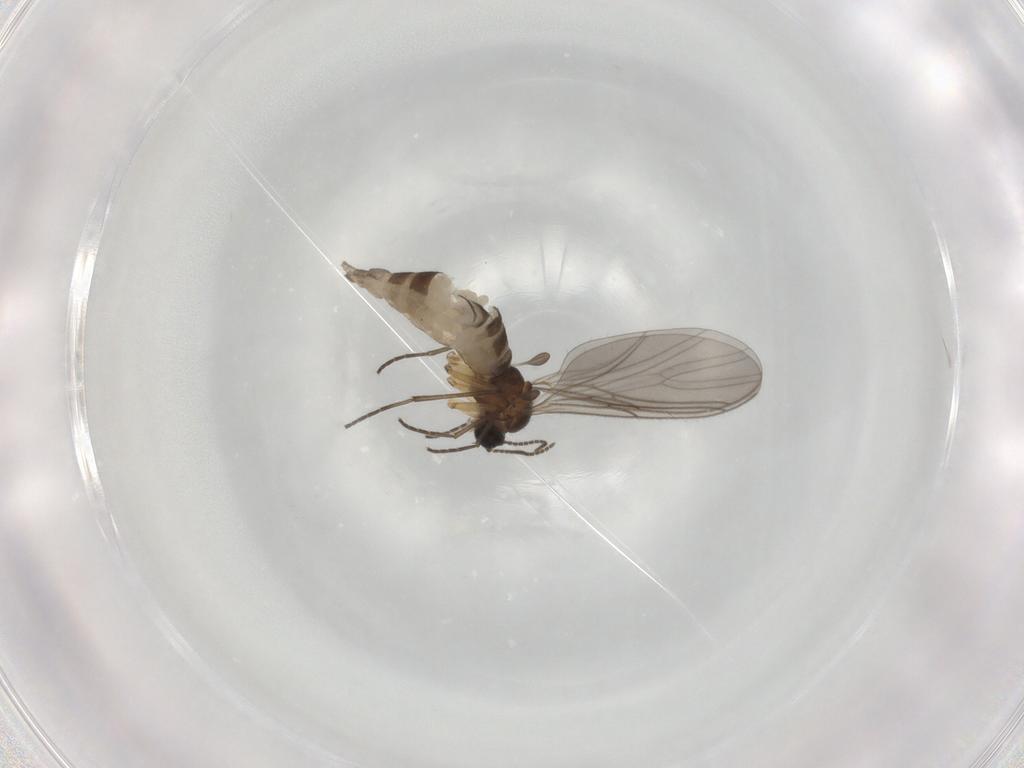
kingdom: Animalia
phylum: Arthropoda
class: Insecta
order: Diptera
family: Sciaridae
